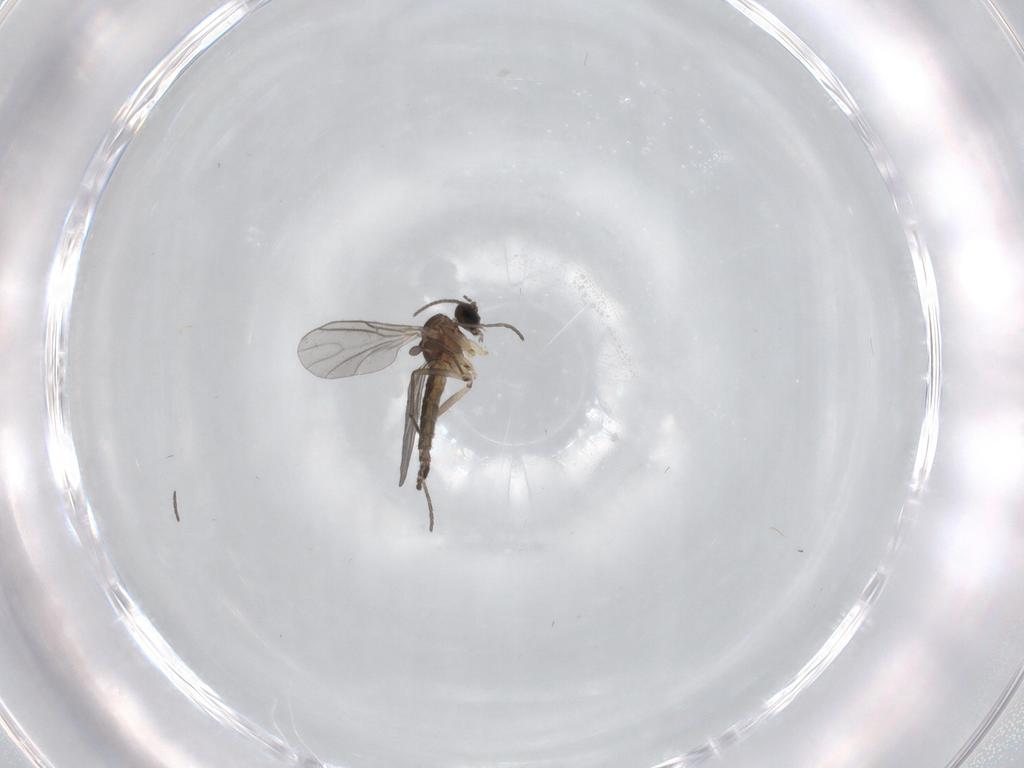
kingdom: Animalia
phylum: Arthropoda
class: Insecta
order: Diptera
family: Sciaridae
